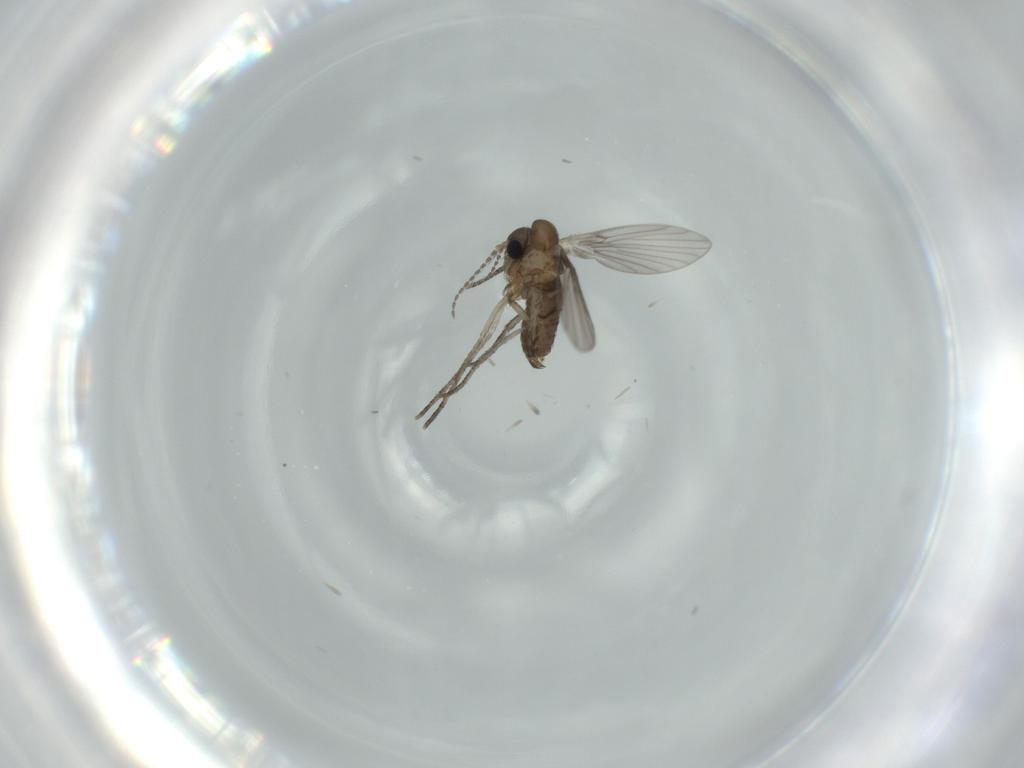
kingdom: Animalia
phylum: Arthropoda
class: Insecta
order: Diptera
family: Psychodidae
